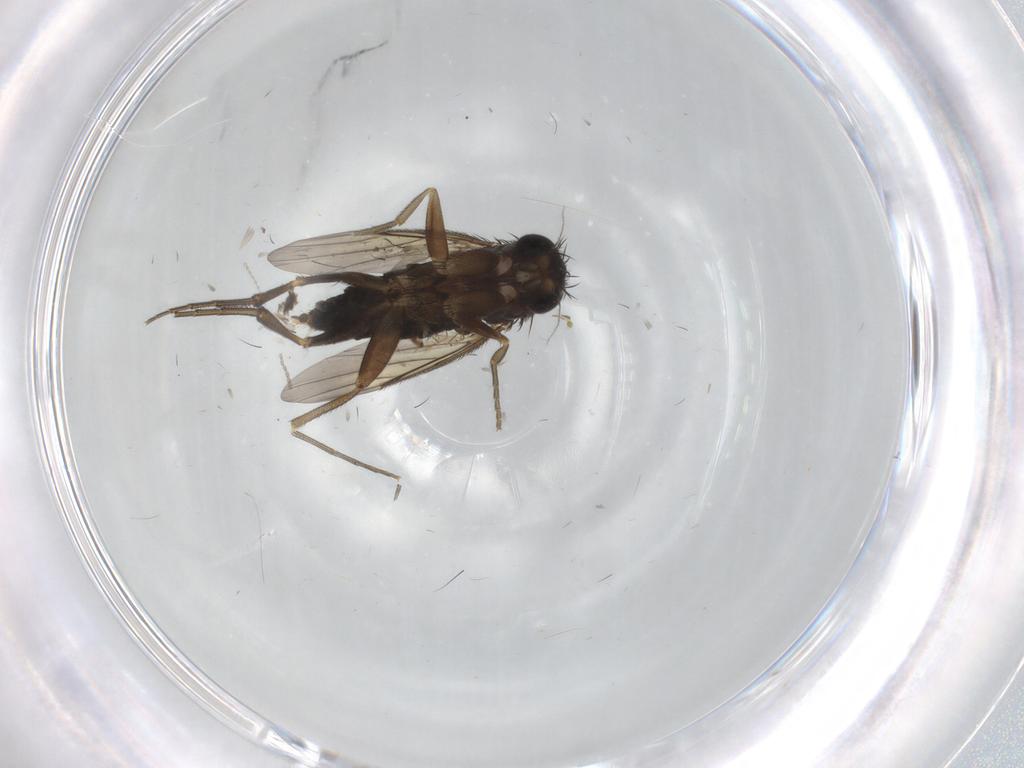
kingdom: Animalia
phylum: Arthropoda
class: Insecta
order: Diptera
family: Phoridae
